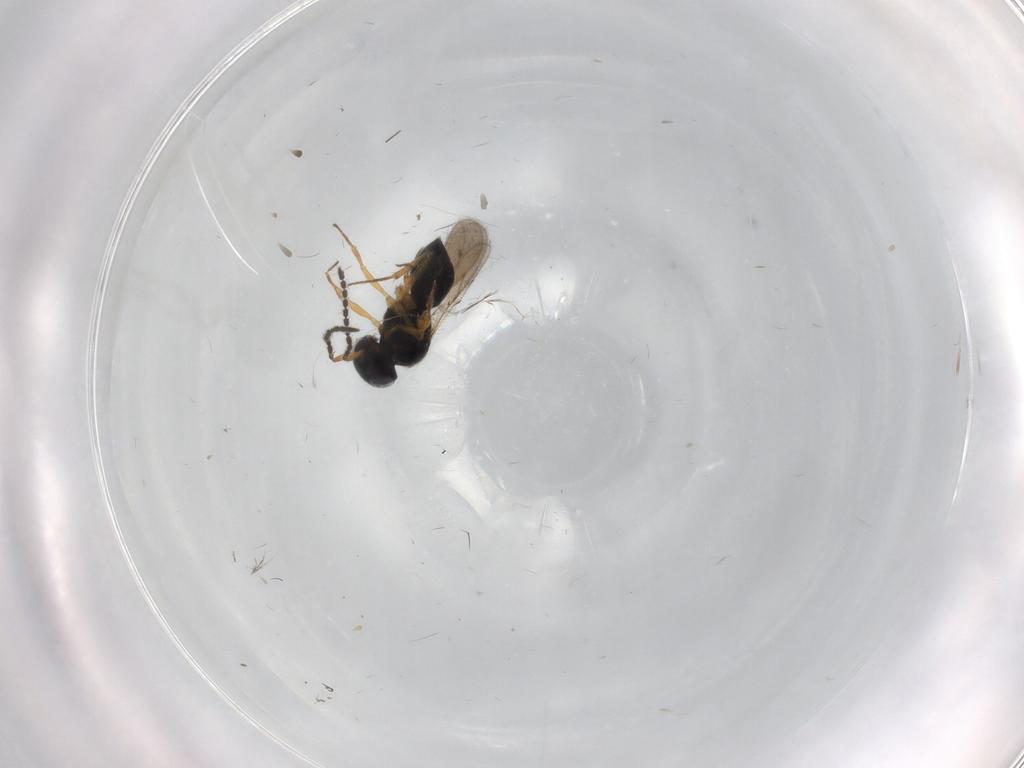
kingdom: Animalia
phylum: Arthropoda
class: Insecta
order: Hymenoptera
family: Scelionidae
